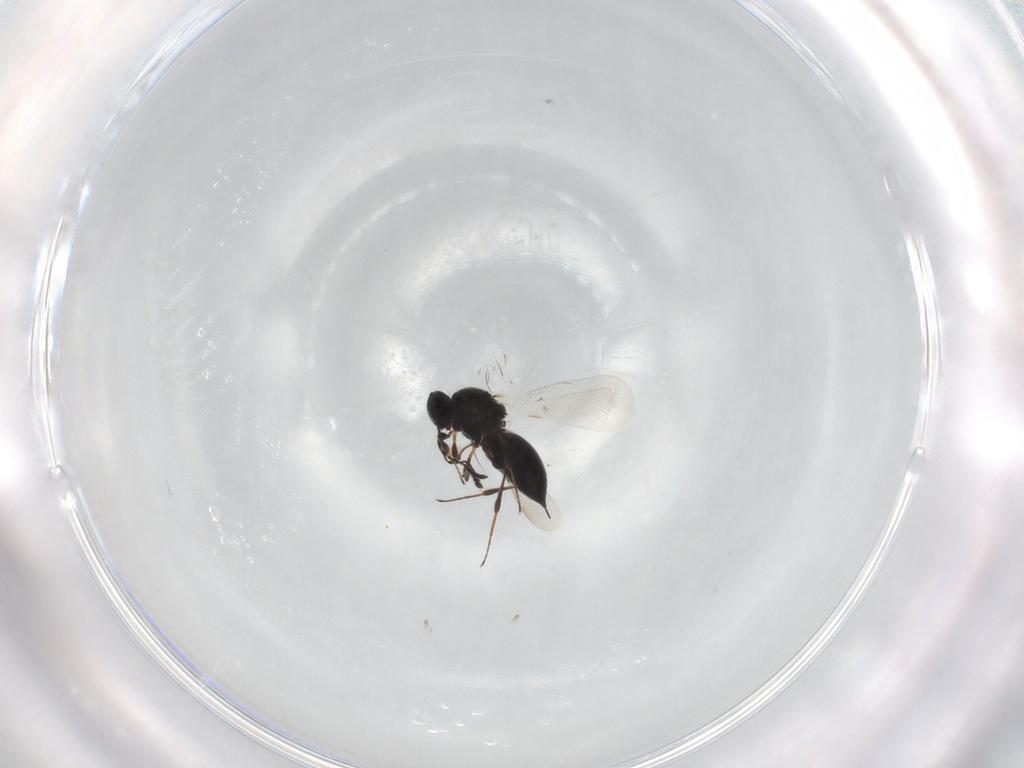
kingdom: Animalia
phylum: Arthropoda
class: Insecta
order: Hymenoptera
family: Platygastridae
